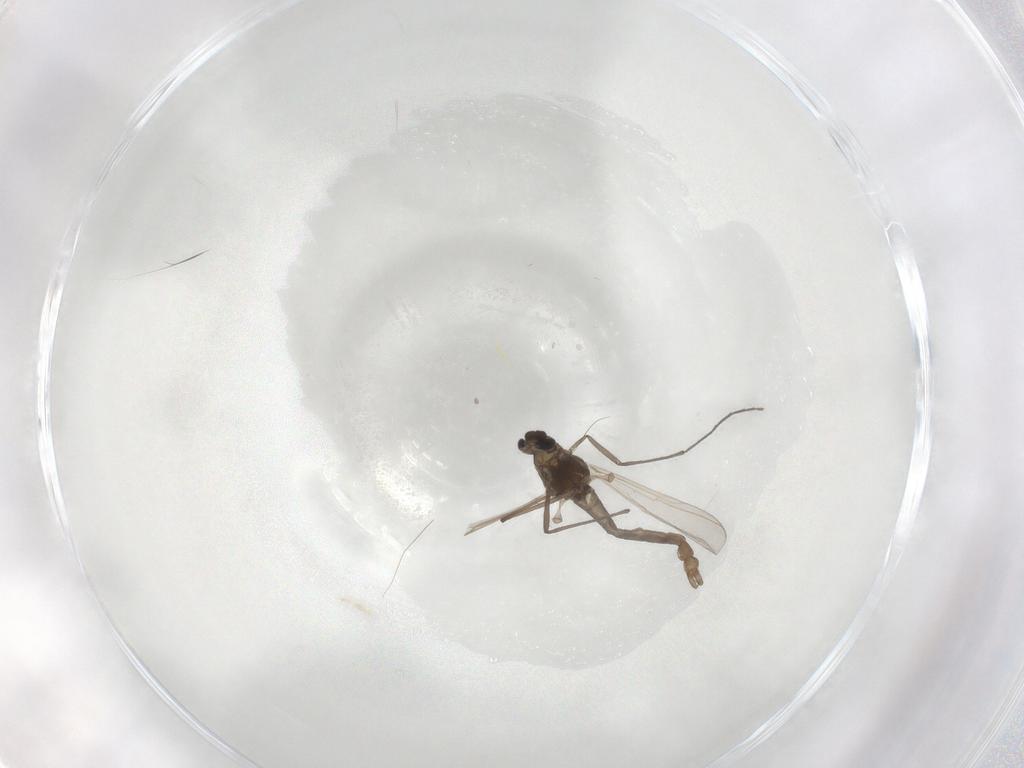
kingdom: Animalia
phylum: Arthropoda
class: Insecta
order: Diptera
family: Chironomidae
